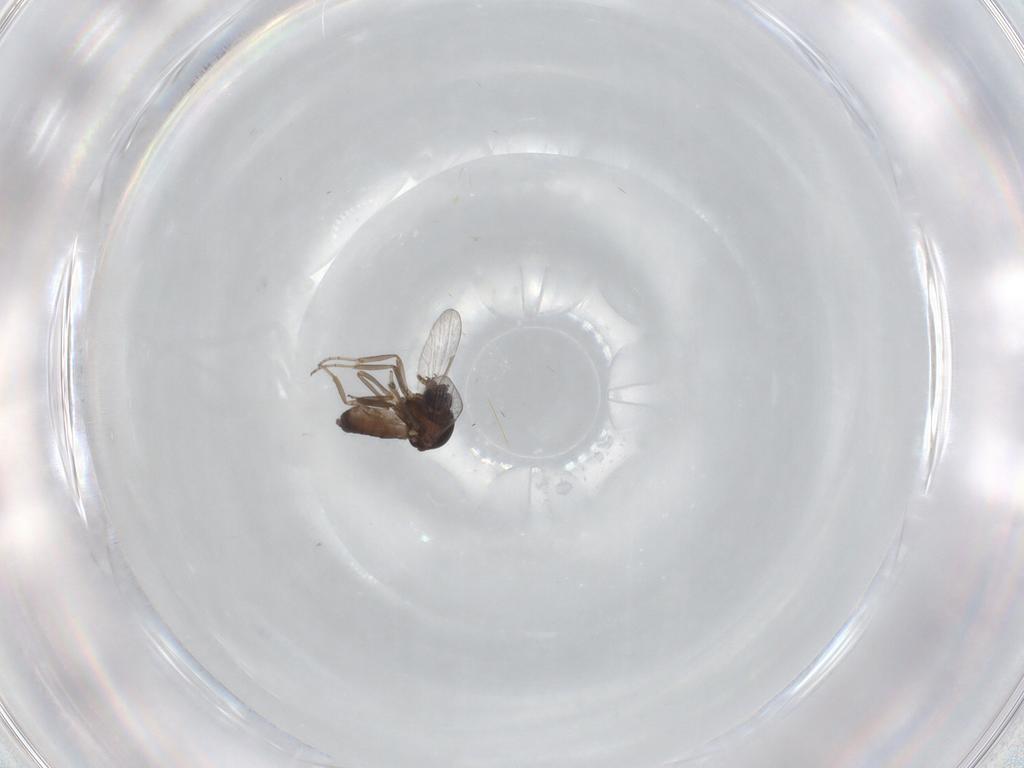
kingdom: Animalia
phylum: Arthropoda
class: Insecta
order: Diptera
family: Ceratopogonidae
